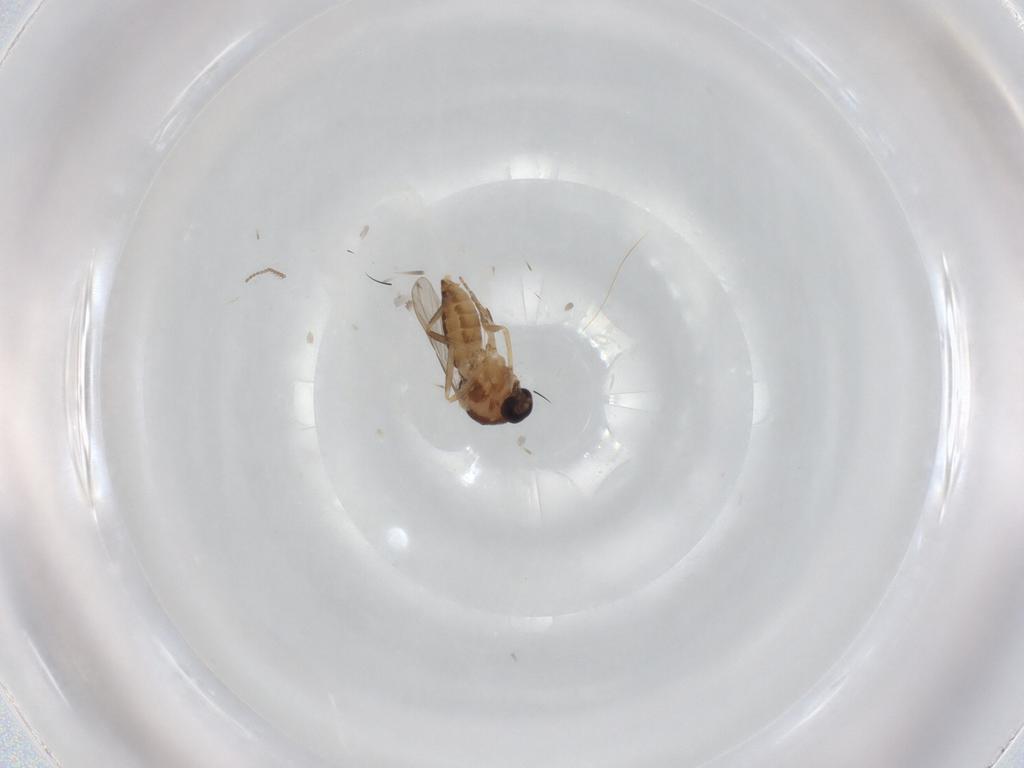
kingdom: Animalia
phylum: Arthropoda
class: Insecta
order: Diptera
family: Ceratopogonidae
